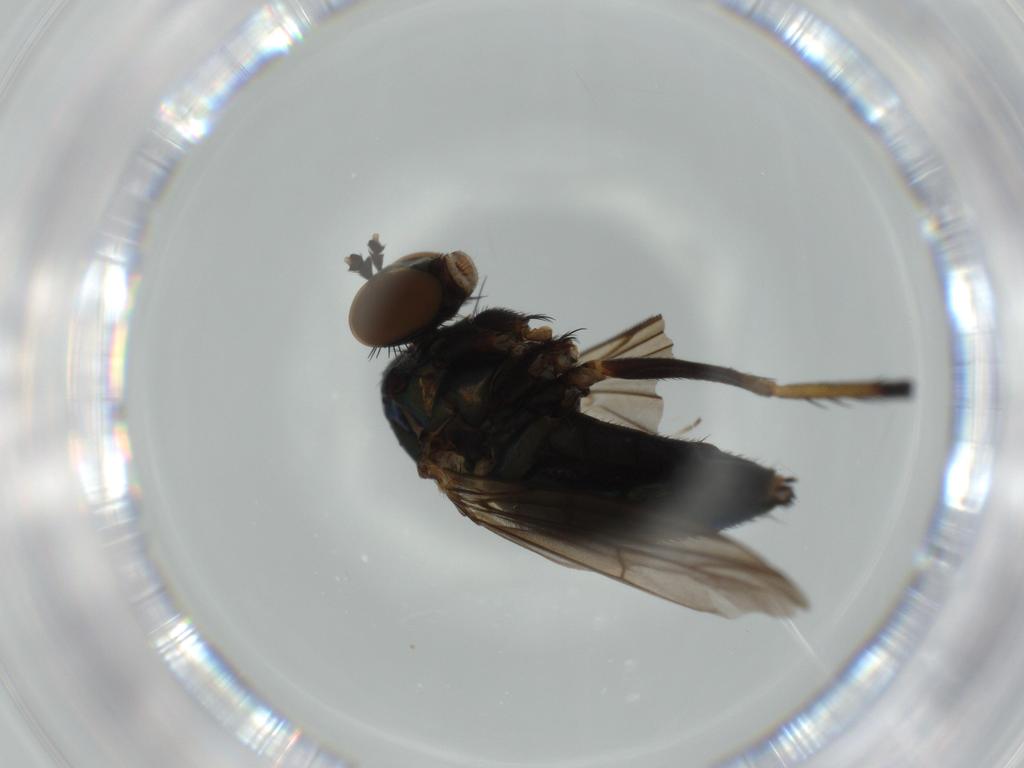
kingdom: Animalia
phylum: Arthropoda
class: Insecta
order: Diptera
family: Dolichopodidae
